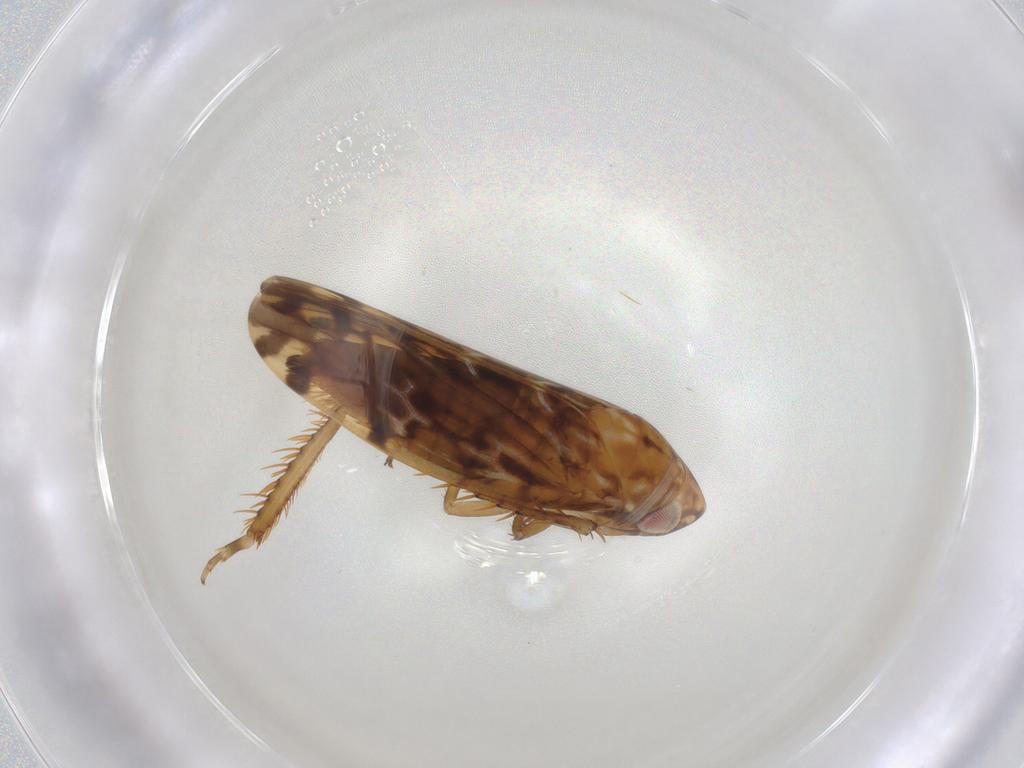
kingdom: Animalia
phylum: Arthropoda
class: Insecta
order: Hemiptera
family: Cicadellidae
